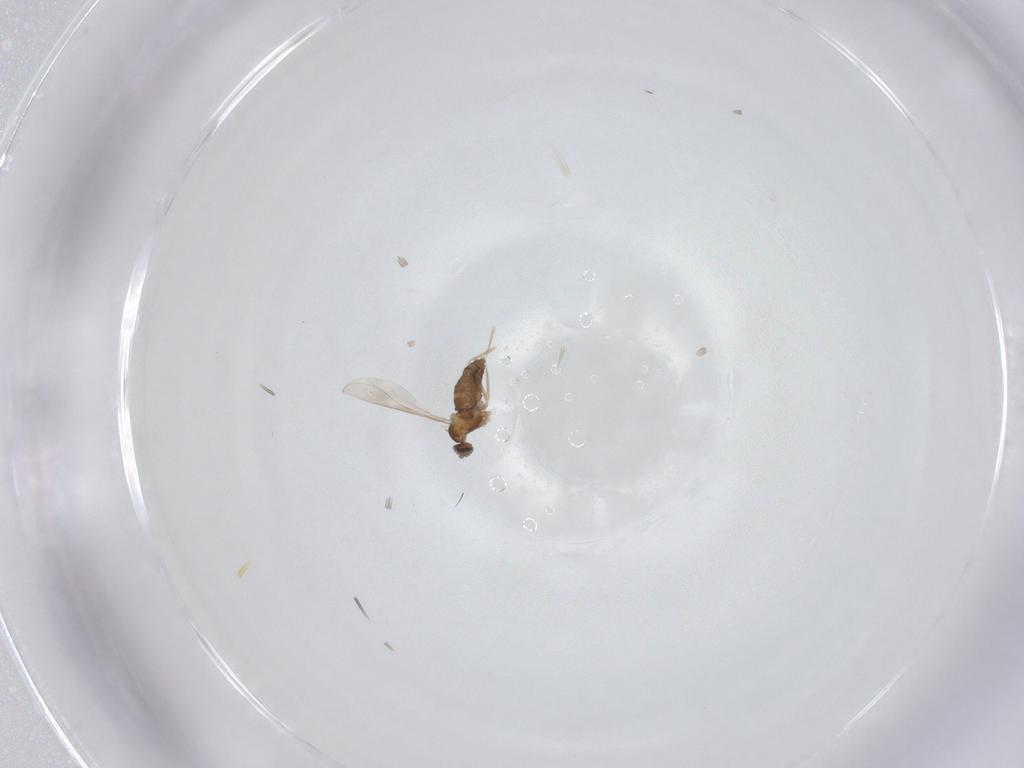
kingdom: Animalia
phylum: Arthropoda
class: Insecta
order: Diptera
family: Cecidomyiidae
